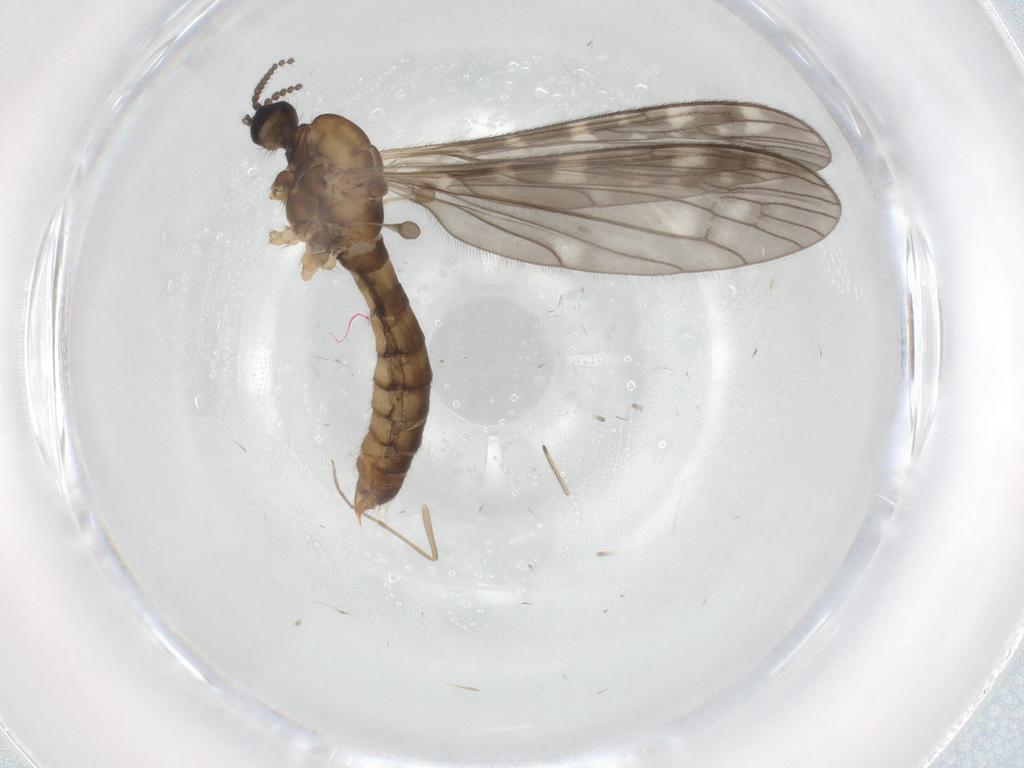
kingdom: Animalia
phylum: Arthropoda
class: Insecta
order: Diptera
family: Limoniidae
